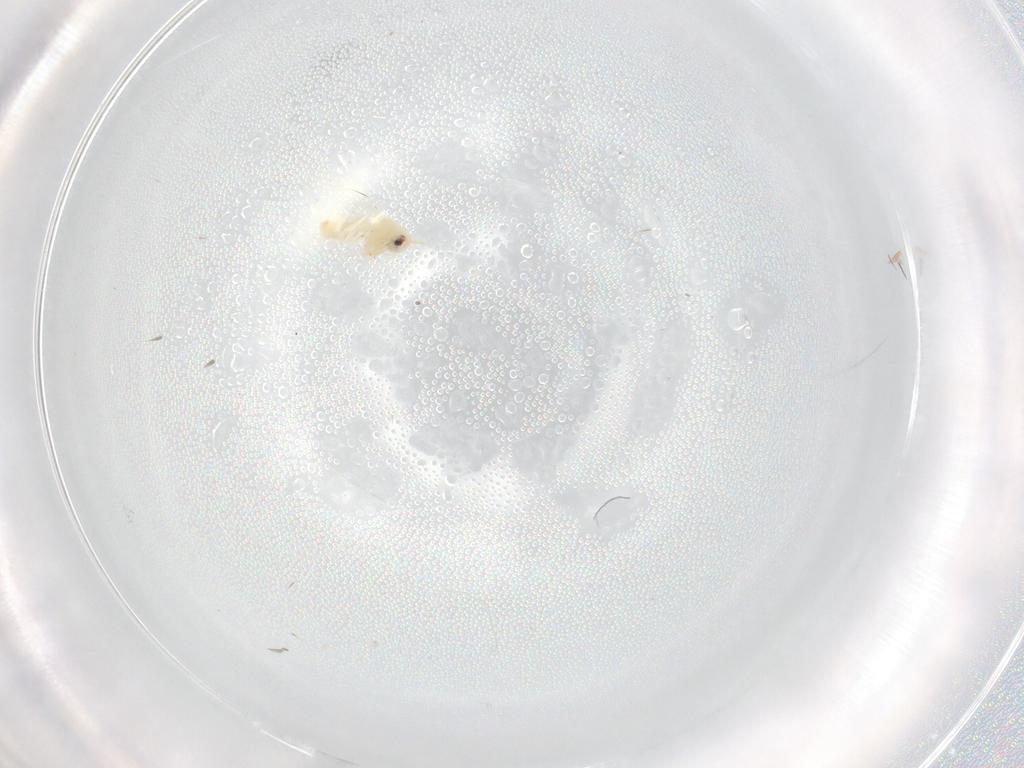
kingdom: Animalia
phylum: Arthropoda
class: Insecta
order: Hemiptera
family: Aleyrodidae
